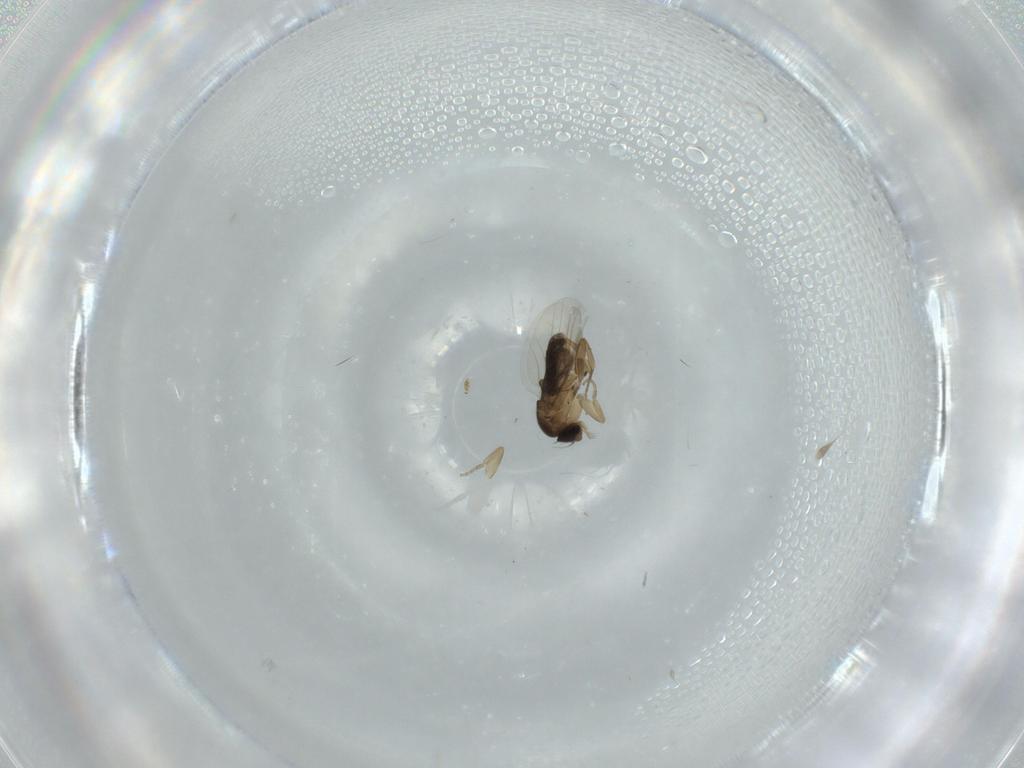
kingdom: Animalia
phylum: Arthropoda
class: Insecta
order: Diptera
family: Phoridae
